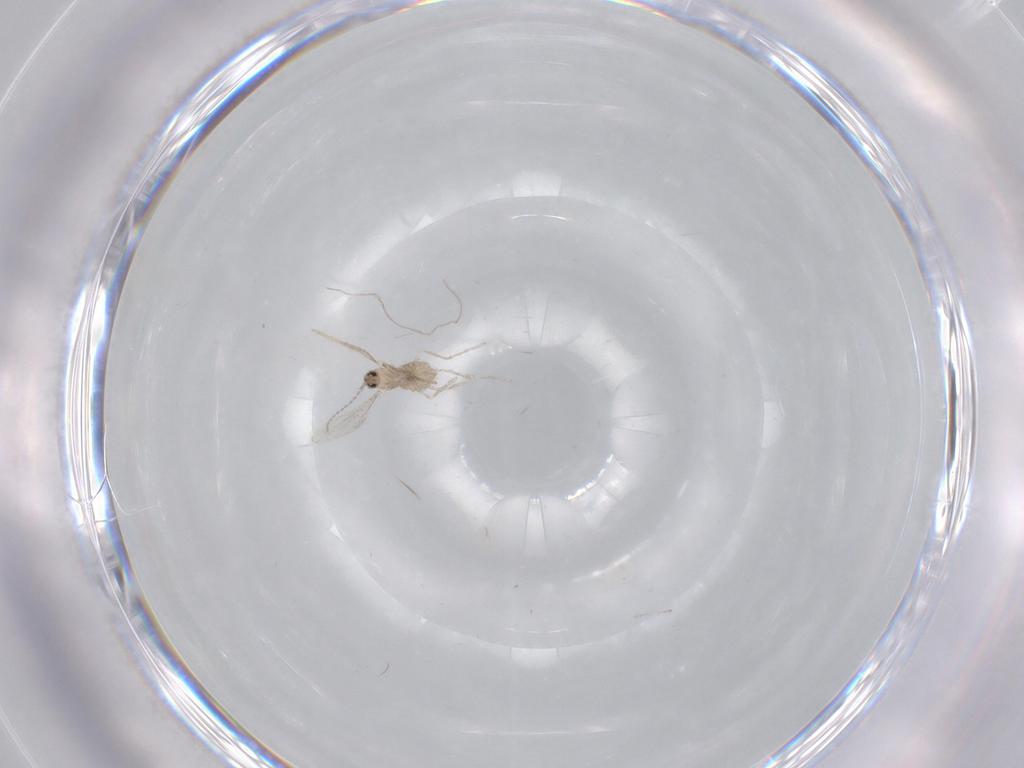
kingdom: Animalia
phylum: Arthropoda
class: Insecta
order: Diptera
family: Cecidomyiidae
